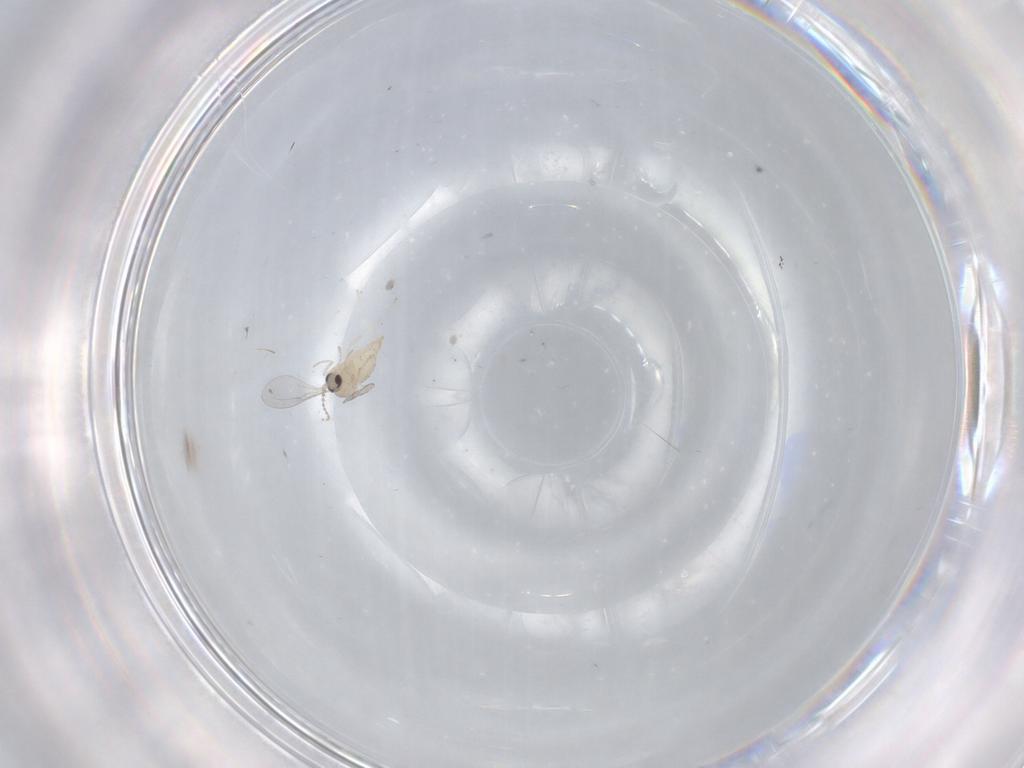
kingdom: Animalia
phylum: Arthropoda
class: Insecta
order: Diptera
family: Cecidomyiidae
